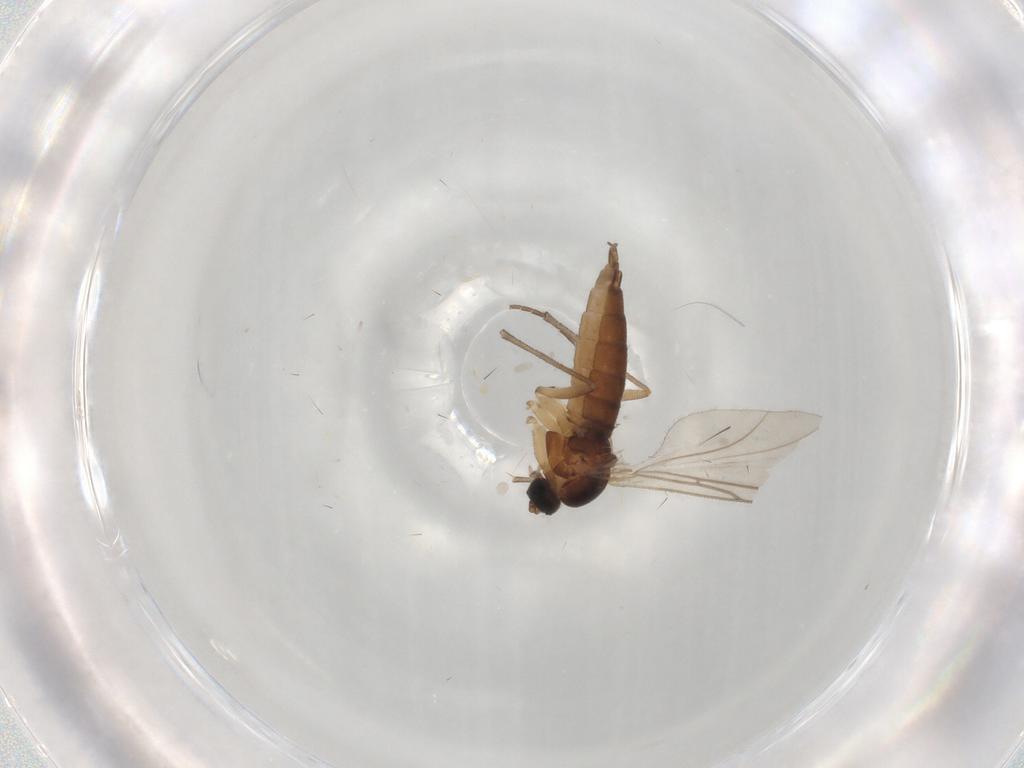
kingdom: Animalia
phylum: Arthropoda
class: Insecta
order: Diptera
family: Sciaridae
